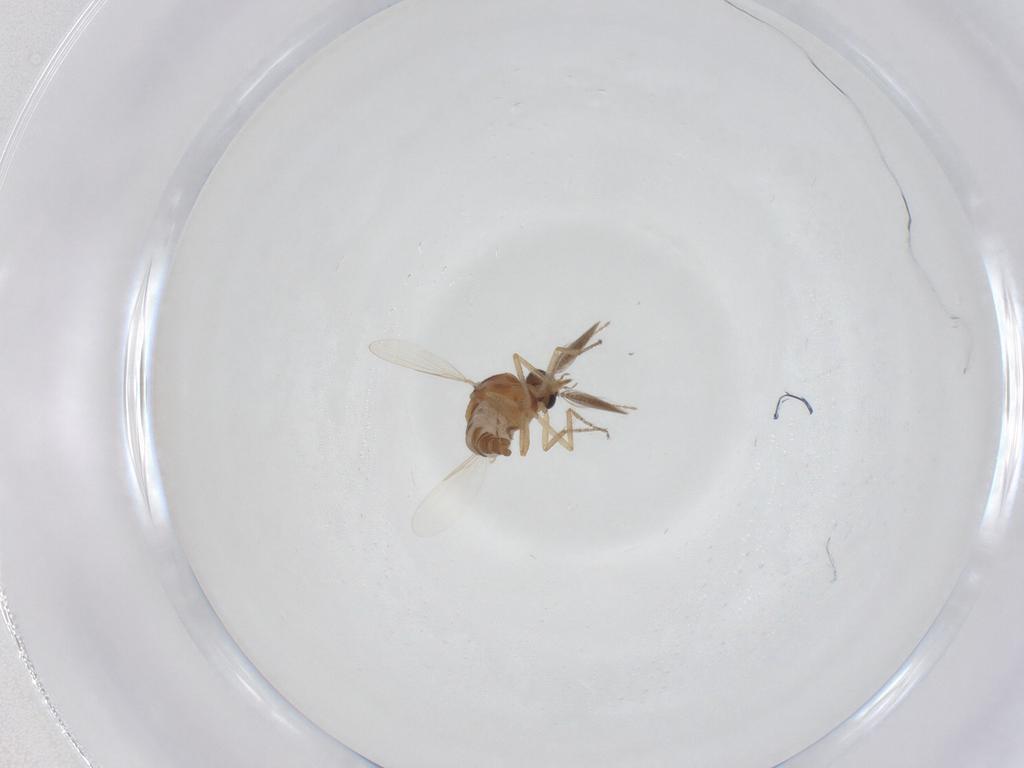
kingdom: Animalia
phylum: Arthropoda
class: Insecta
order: Diptera
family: Ceratopogonidae
